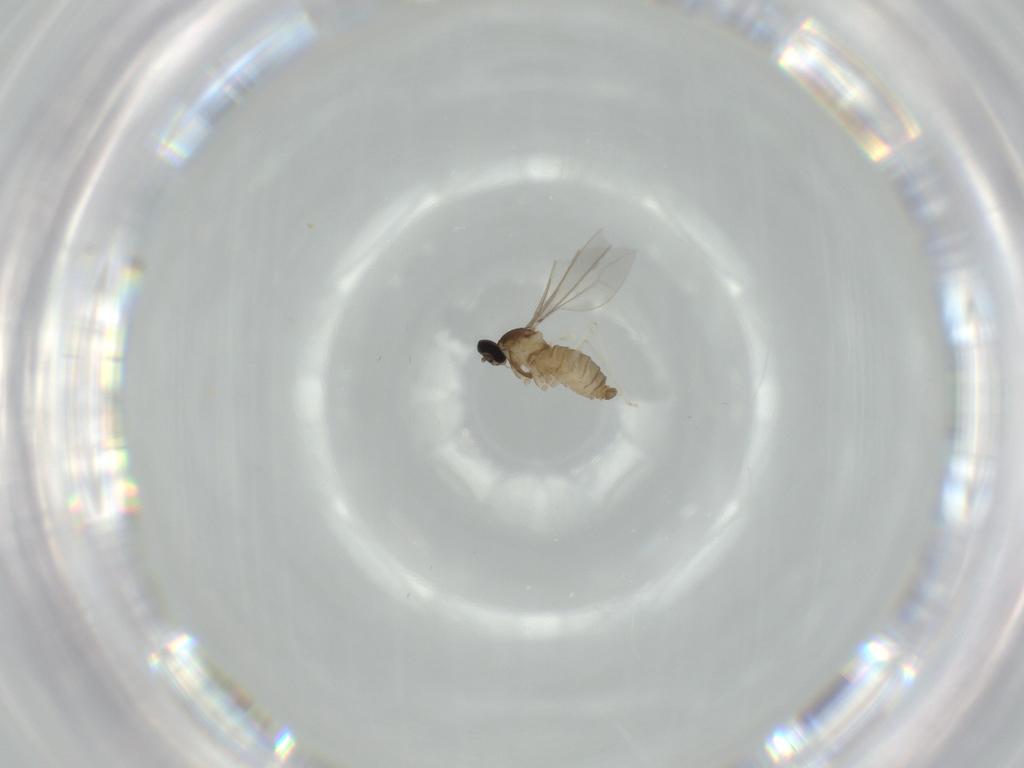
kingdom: Animalia
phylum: Arthropoda
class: Insecta
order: Diptera
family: Cecidomyiidae
